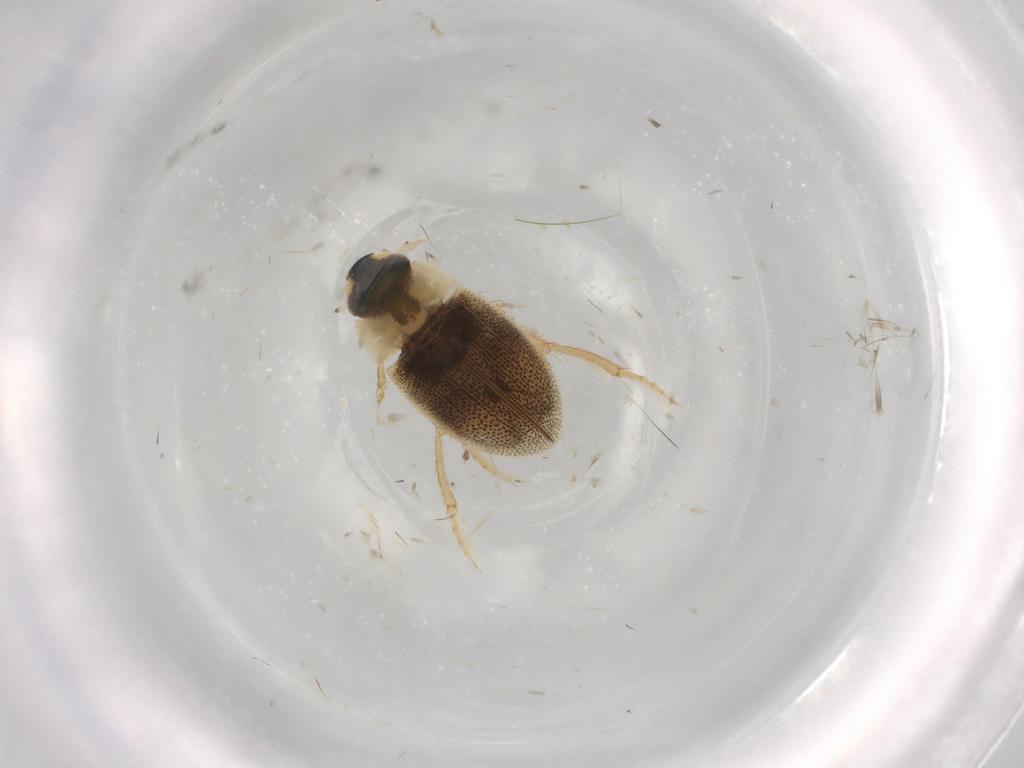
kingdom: Animalia
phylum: Arthropoda
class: Insecta
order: Coleoptera
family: Hydrophilidae
